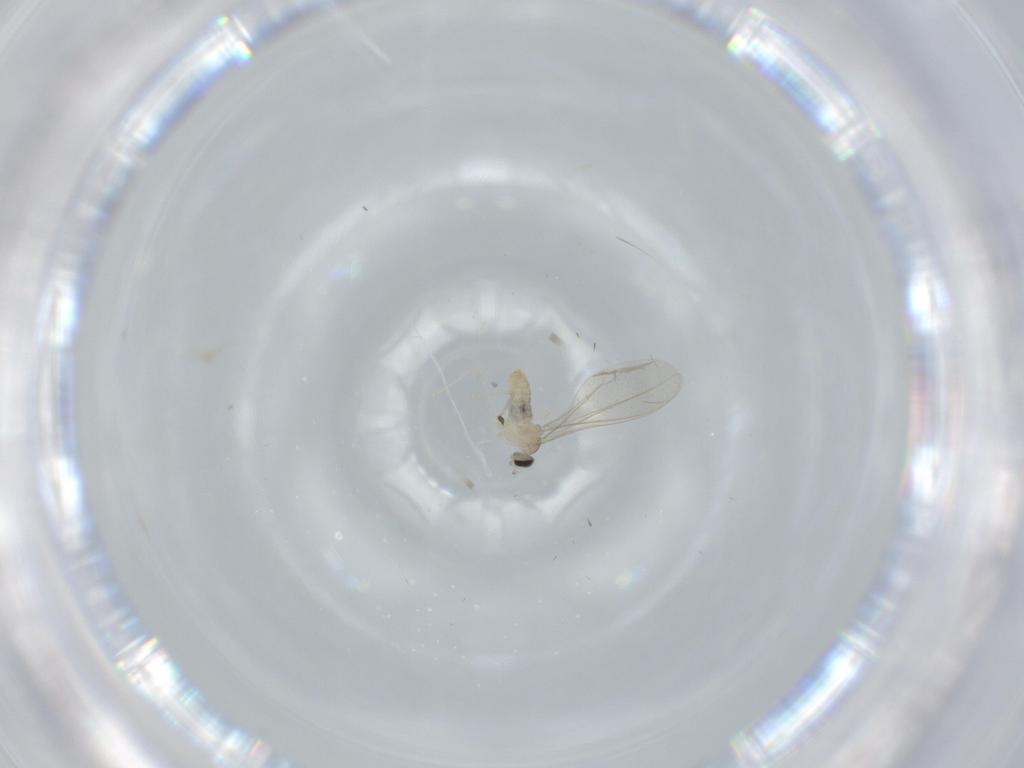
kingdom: Animalia
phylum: Arthropoda
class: Insecta
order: Diptera
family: Cecidomyiidae
